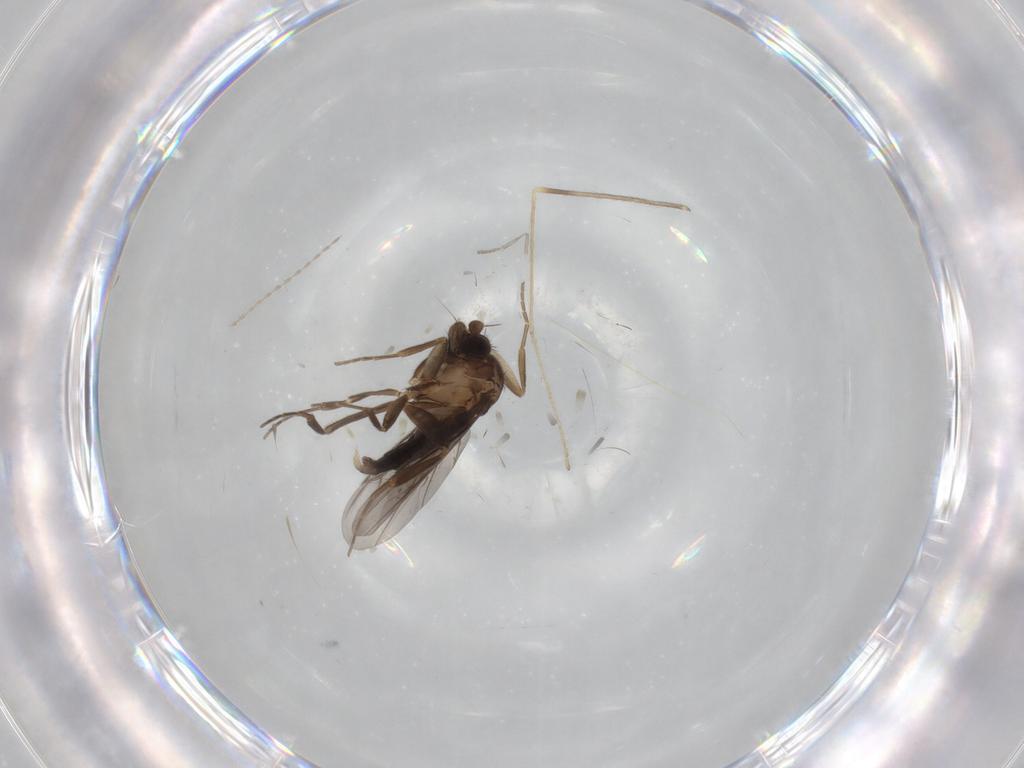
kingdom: Animalia
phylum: Arthropoda
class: Insecta
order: Diptera
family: Limoniidae
